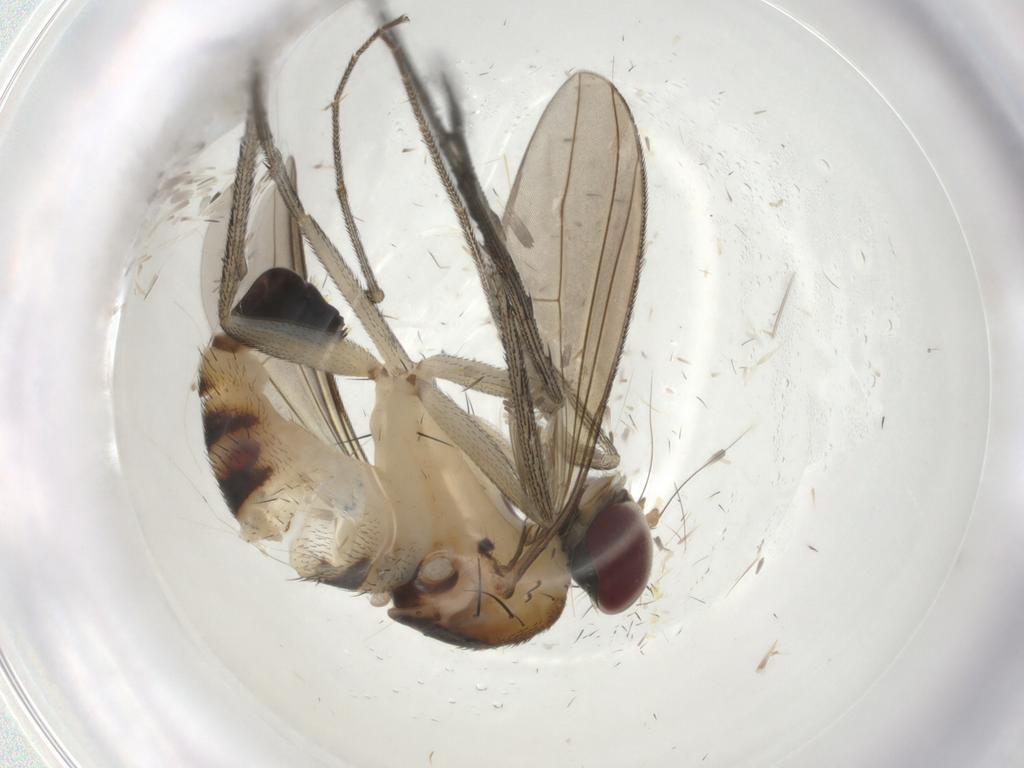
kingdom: Animalia
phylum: Arthropoda
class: Insecta
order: Diptera
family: Dolichopodidae
